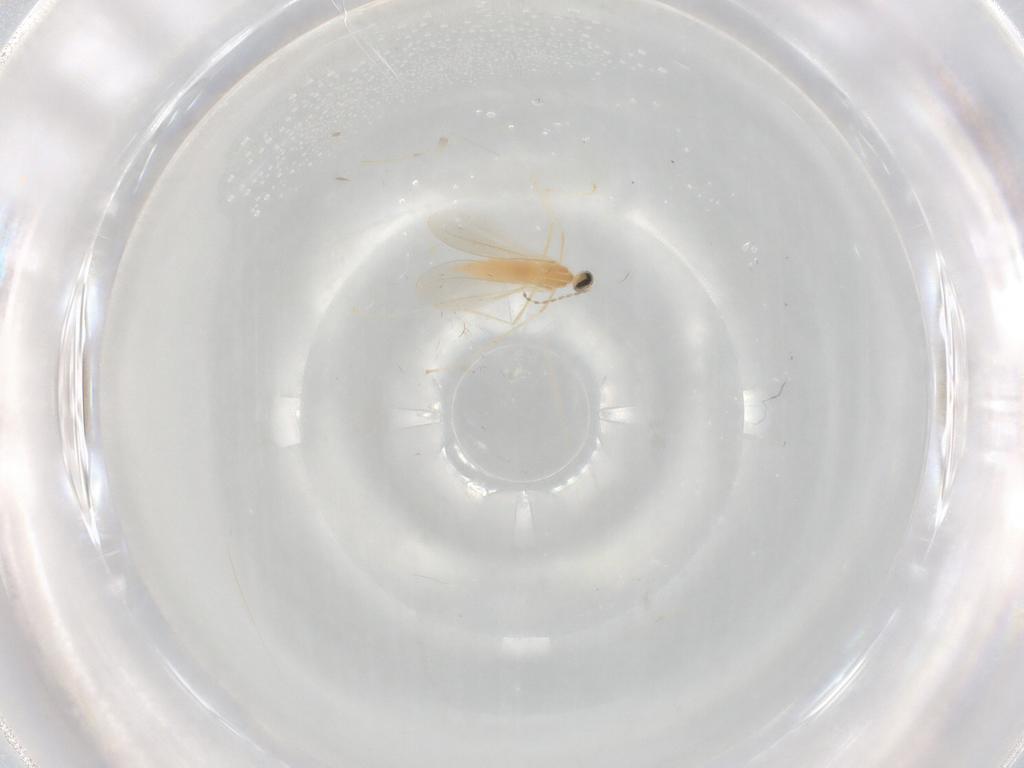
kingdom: Animalia
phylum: Arthropoda
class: Insecta
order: Diptera
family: Cecidomyiidae
